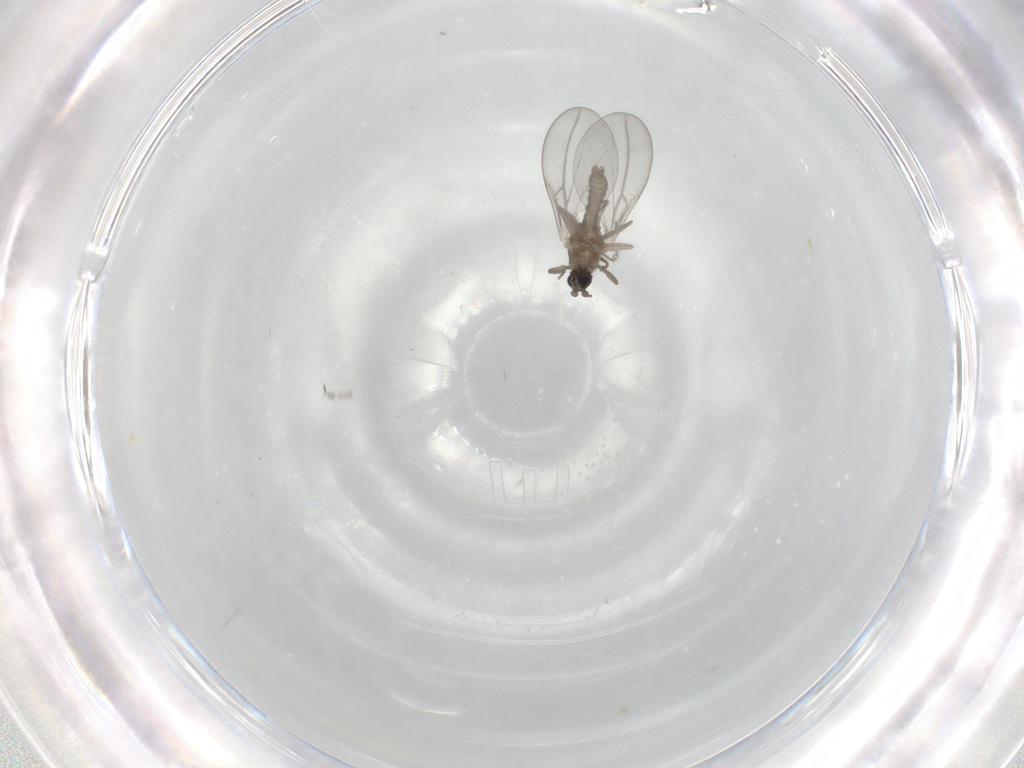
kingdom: Animalia
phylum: Arthropoda
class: Insecta
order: Diptera
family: Cecidomyiidae
